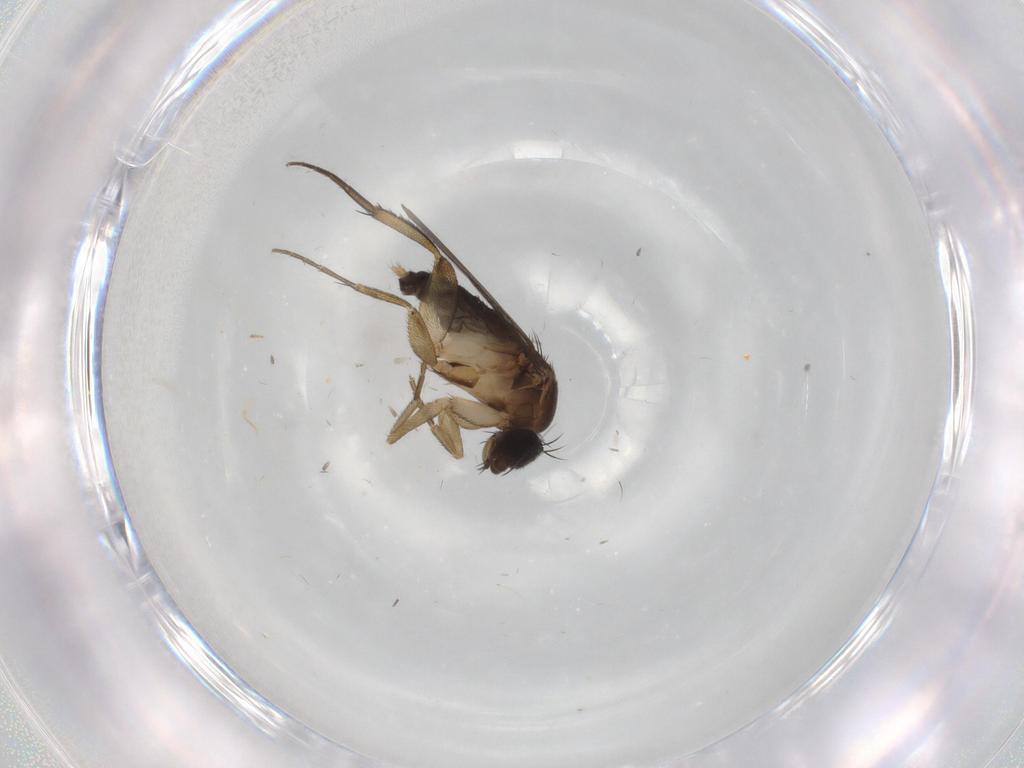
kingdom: Animalia
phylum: Arthropoda
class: Insecta
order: Diptera
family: Phoridae
